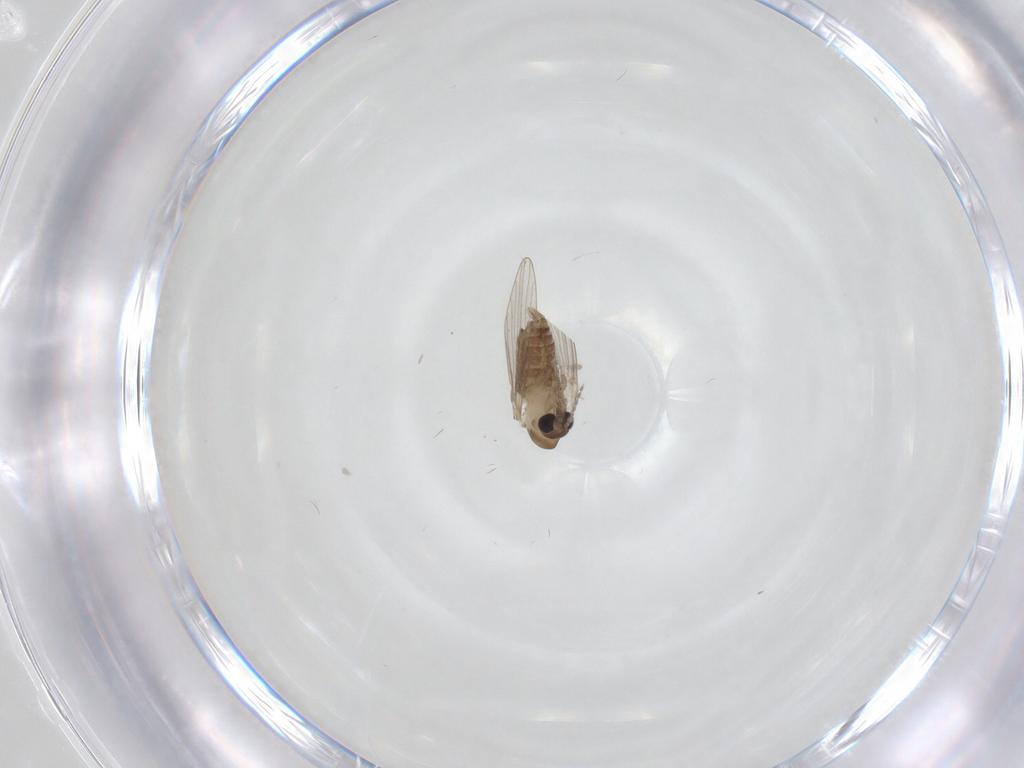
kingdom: Animalia
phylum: Arthropoda
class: Insecta
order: Diptera
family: Psychodidae
